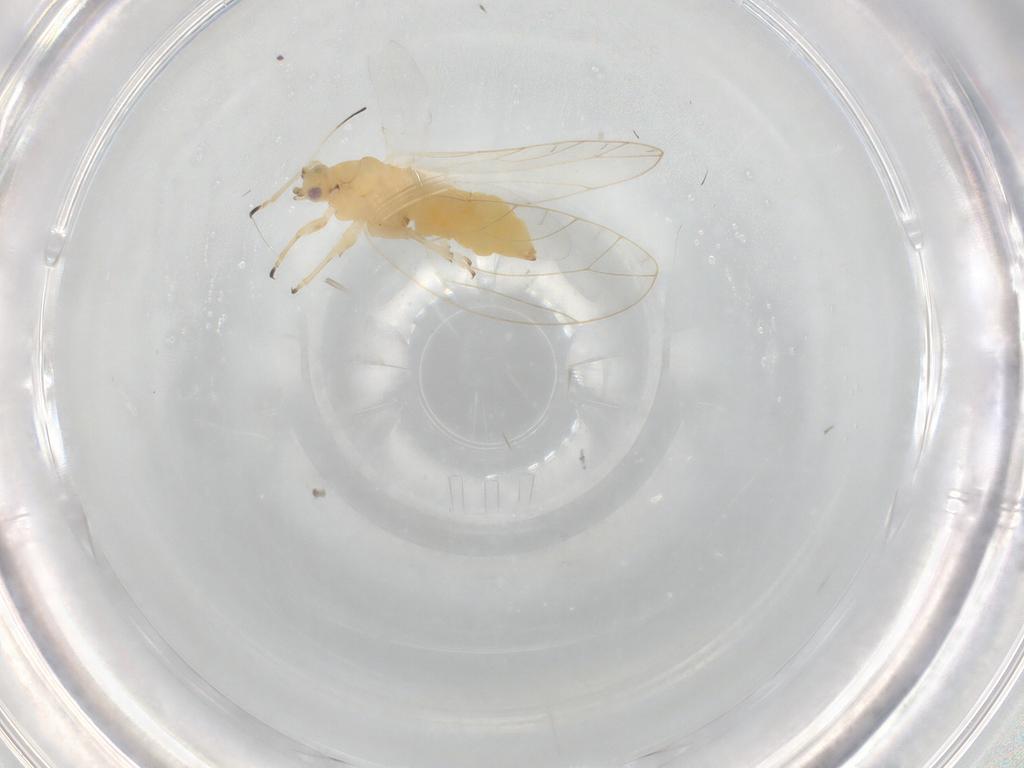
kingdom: Animalia
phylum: Arthropoda
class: Insecta
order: Hemiptera
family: Triozidae
